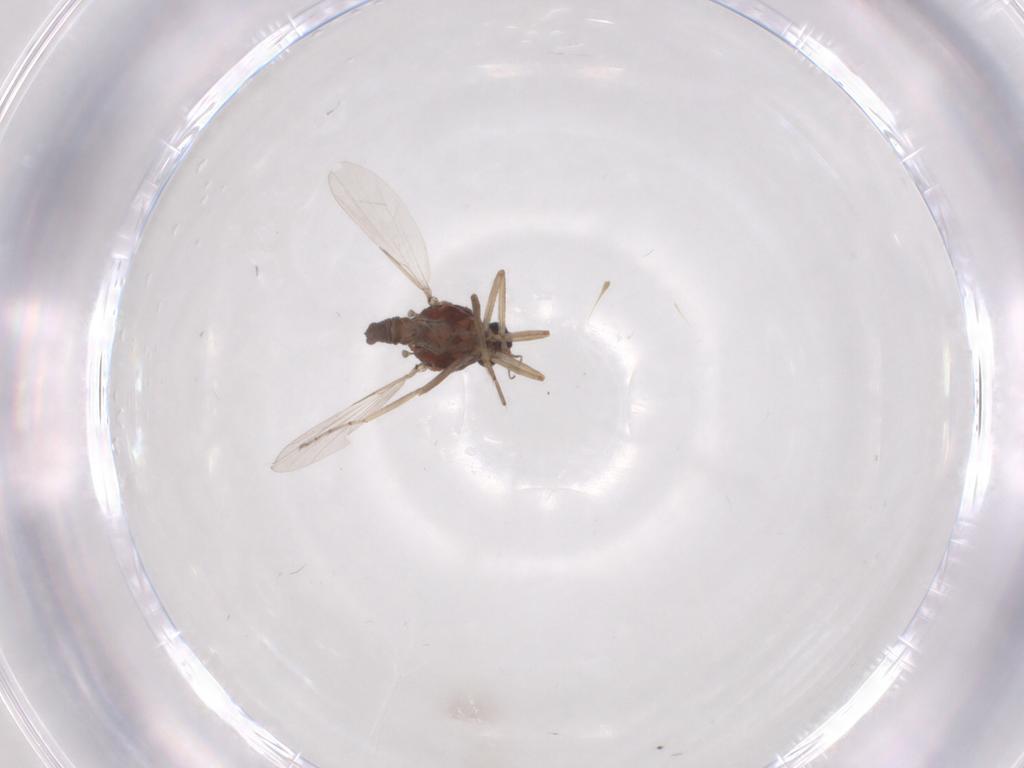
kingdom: Animalia
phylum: Arthropoda
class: Insecta
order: Diptera
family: Ceratopogonidae
